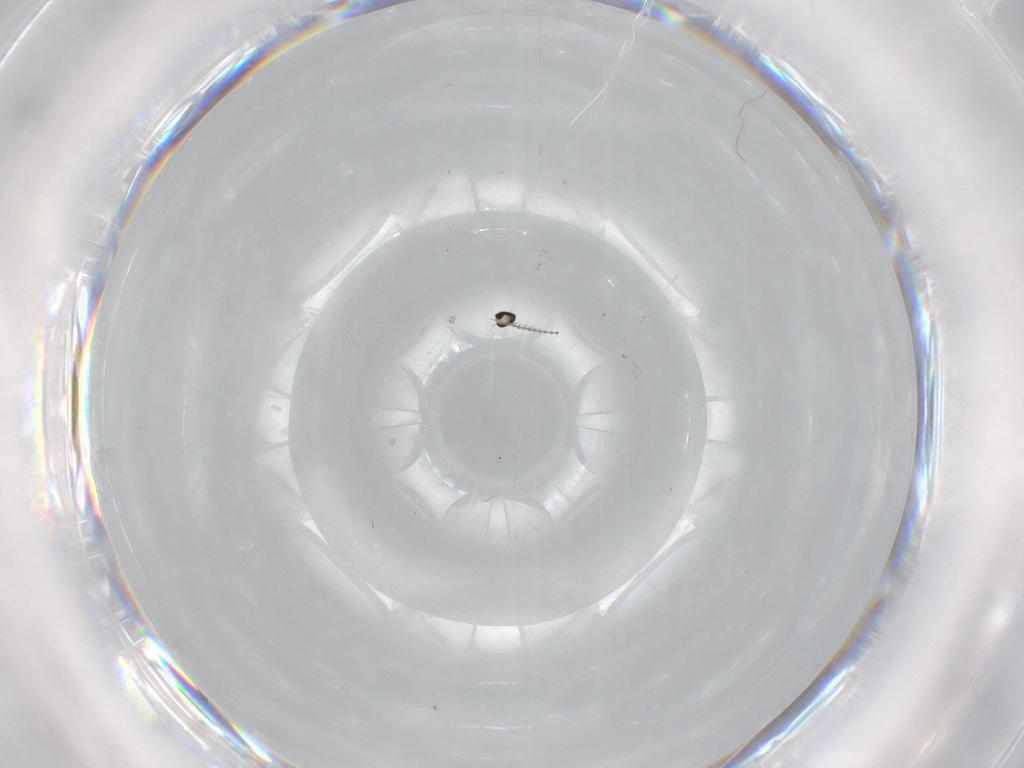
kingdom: Animalia
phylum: Arthropoda
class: Insecta
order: Diptera
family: Cecidomyiidae
